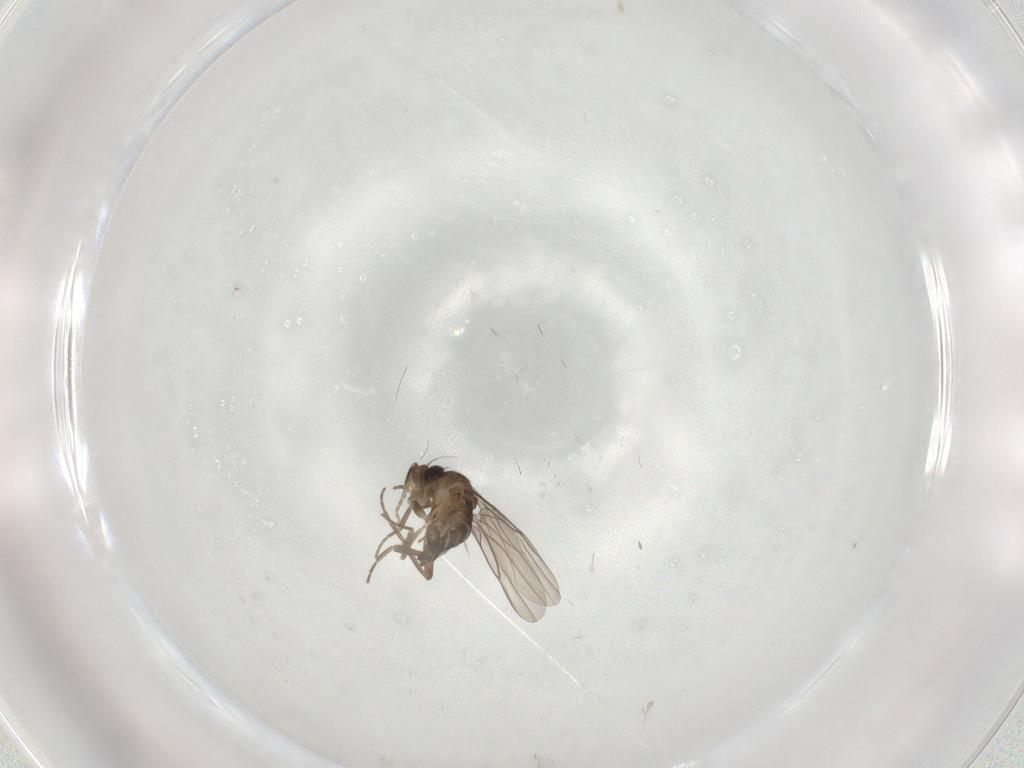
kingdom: Animalia
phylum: Arthropoda
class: Insecta
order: Diptera
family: Phoridae
